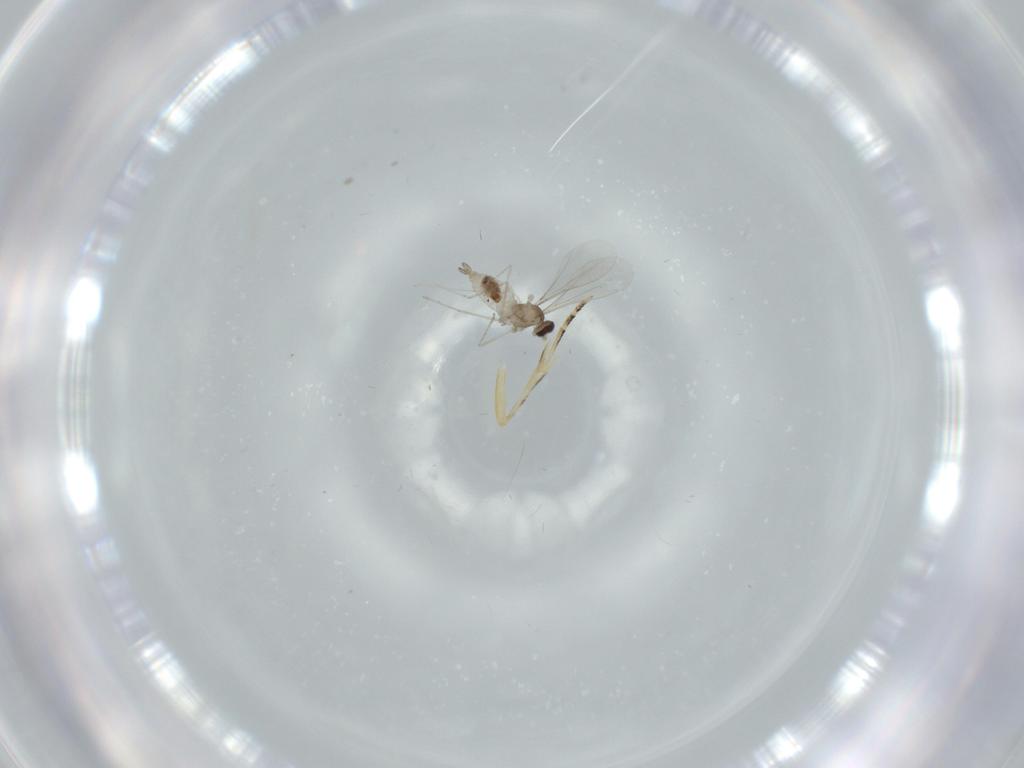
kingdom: Animalia
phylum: Arthropoda
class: Insecta
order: Diptera
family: Cecidomyiidae
